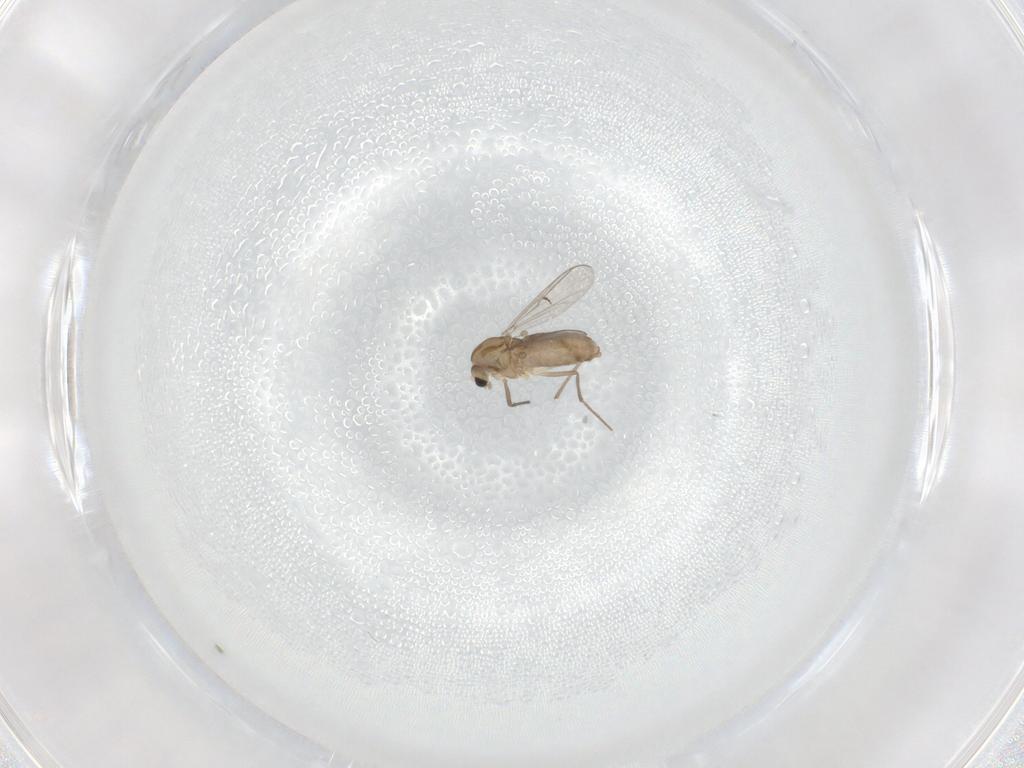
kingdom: Animalia
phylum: Arthropoda
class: Insecta
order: Diptera
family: Chironomidae
